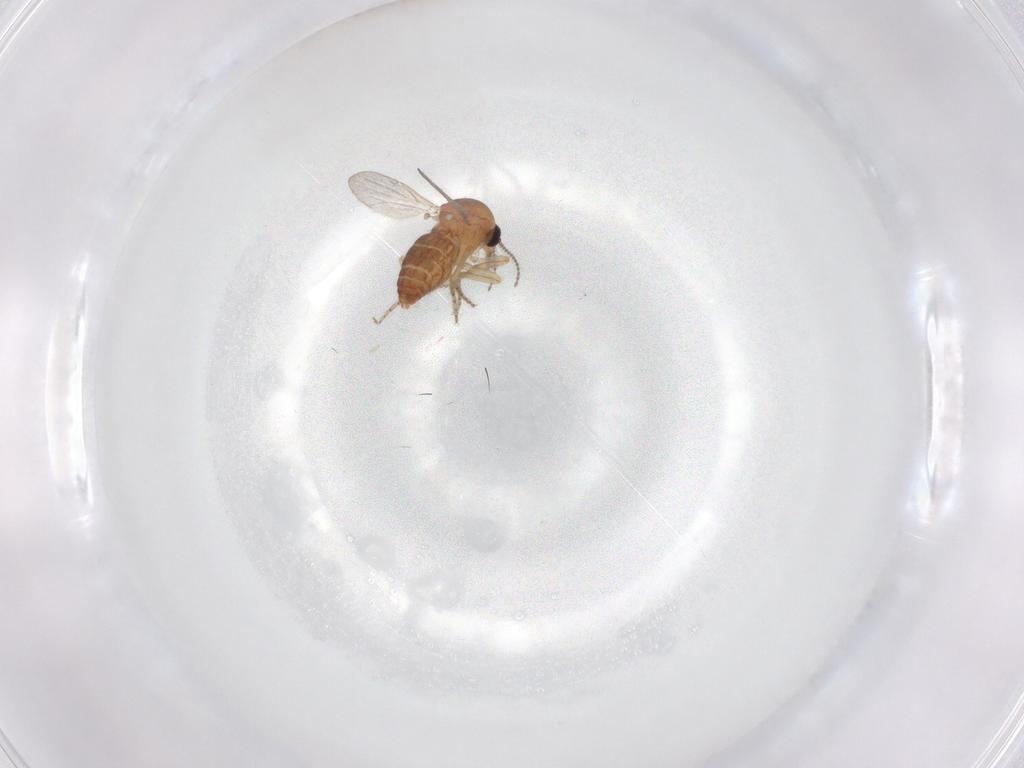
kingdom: Animalia
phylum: Arthropoda
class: Insecta
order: Diptera
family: Ceratopogonidae
